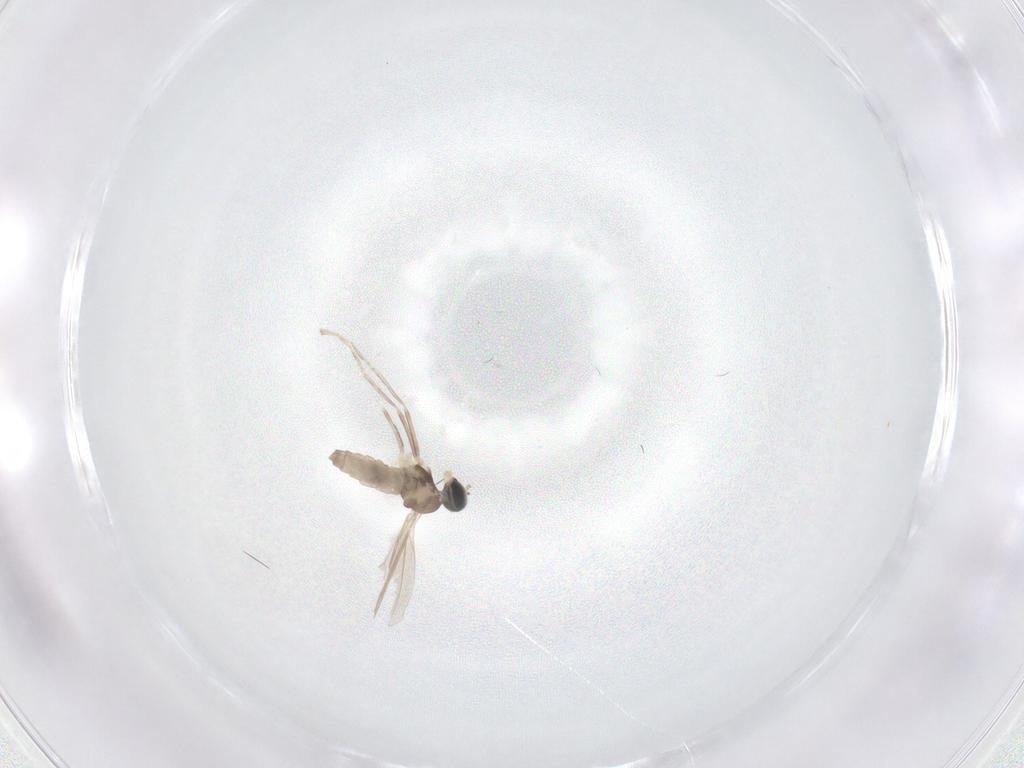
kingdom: Animalia
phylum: Arthropoda
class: Insecta
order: Diptera
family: Cecidomyiidae
